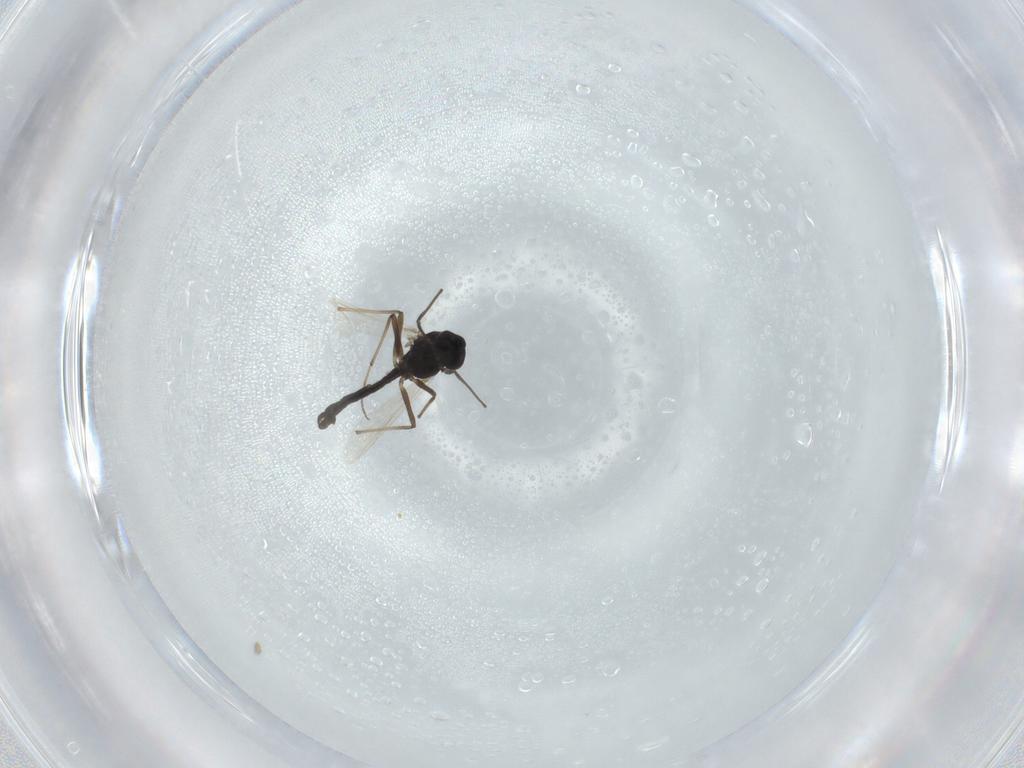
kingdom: Animalia
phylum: Arthropoda
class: Insecta
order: Diptera
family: Chironomidae
